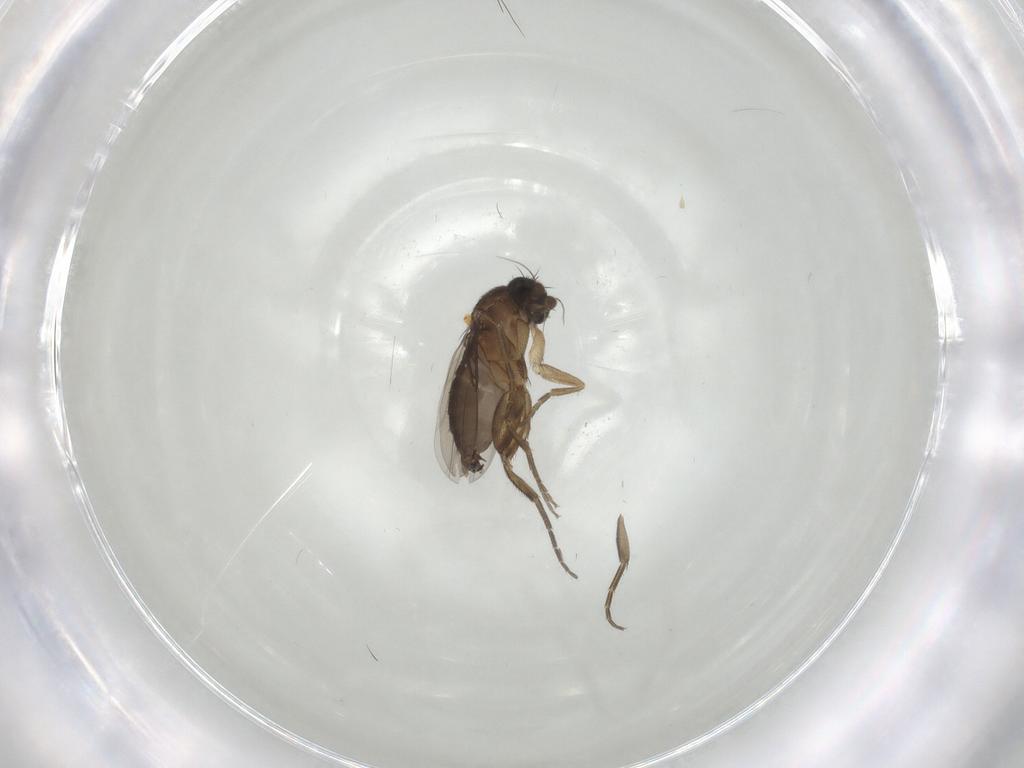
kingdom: Animalia
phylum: Arthropoda
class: Insecta
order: Diptera
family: Phoridae
